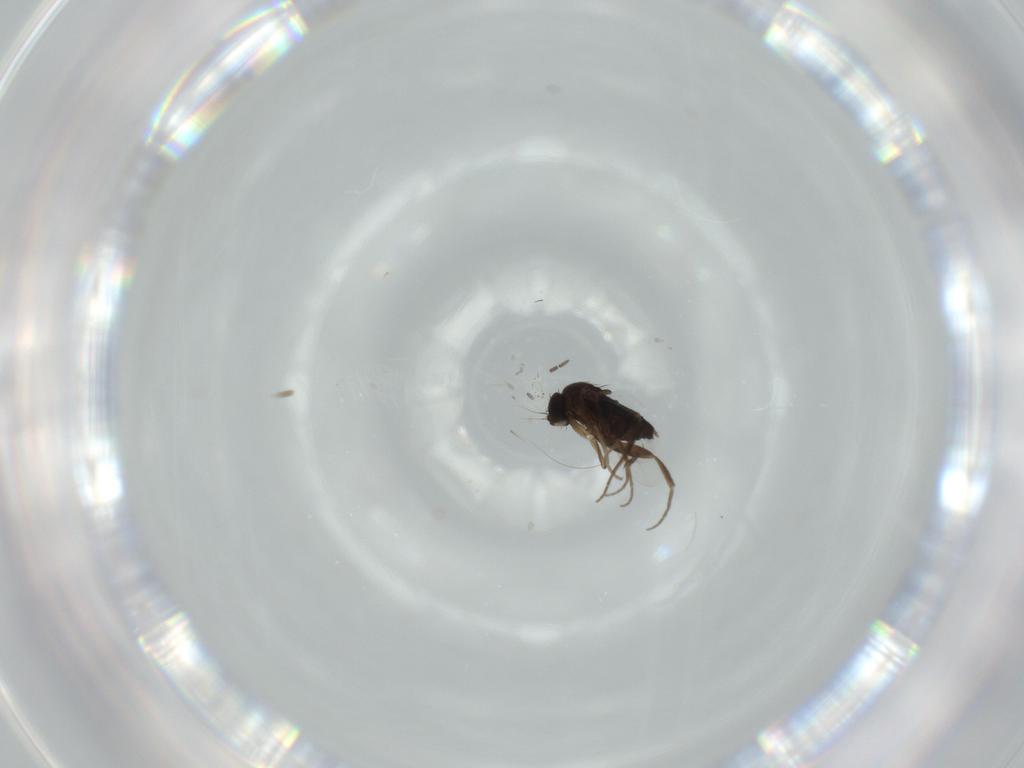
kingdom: Animalia
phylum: Arthropoda
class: Insecta
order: Diptera
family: Phoridae
